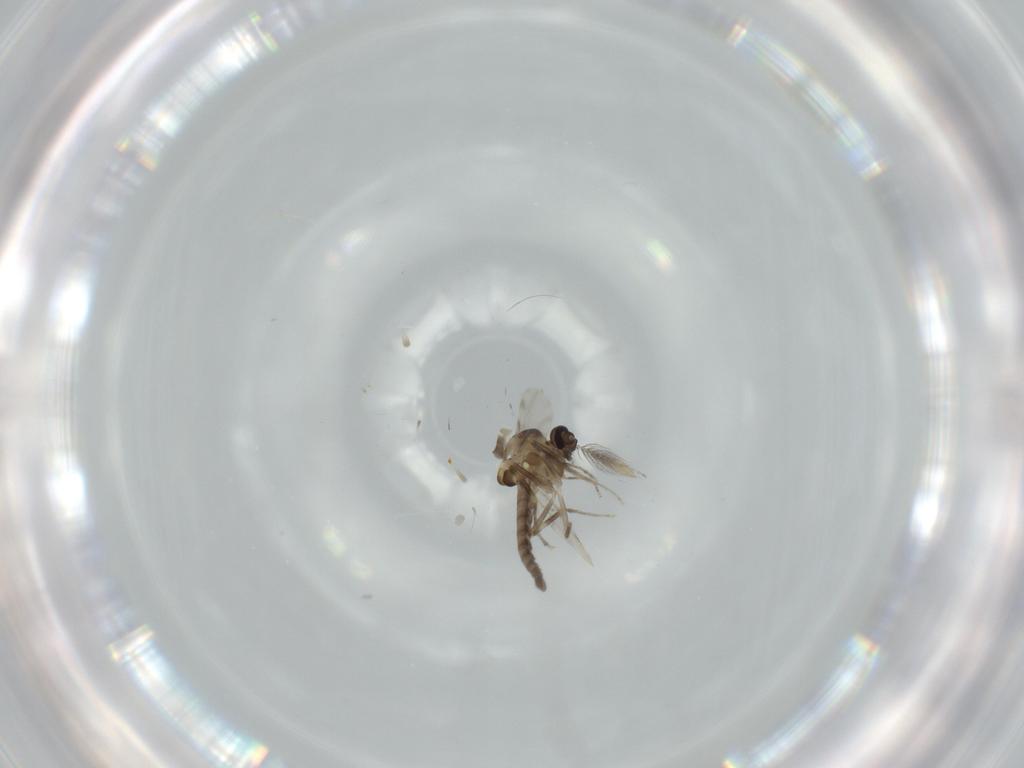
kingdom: Animalia
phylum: Arthropoda
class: Insecta
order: Diptera
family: Ceratopogonidae
